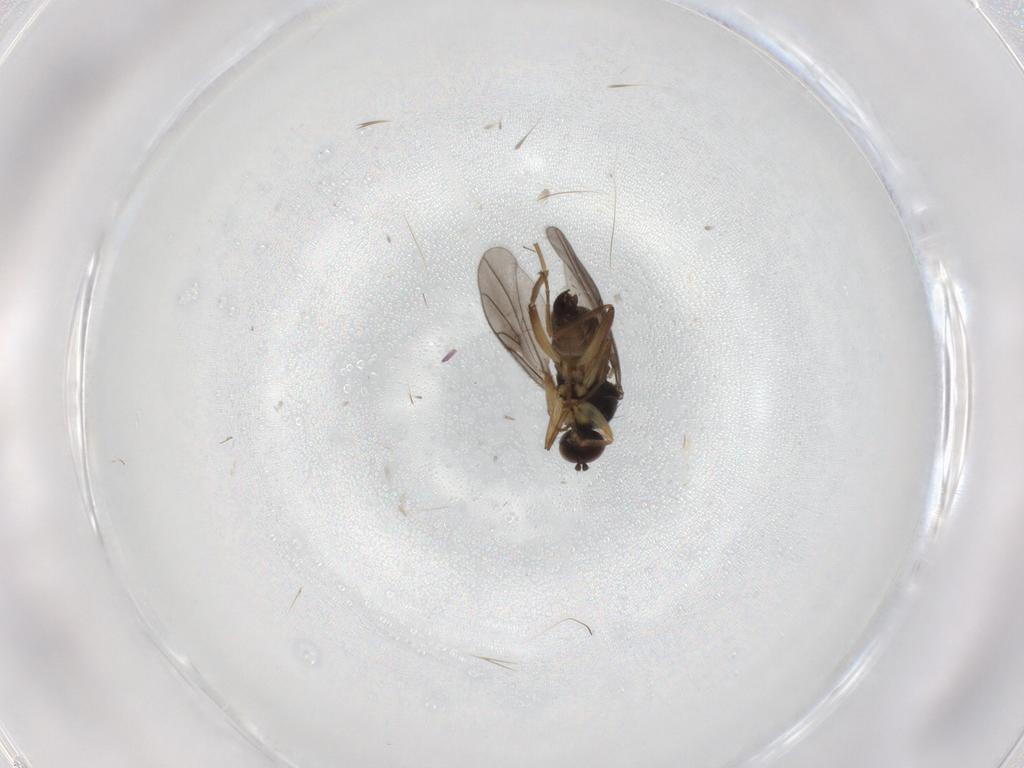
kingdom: Animalia
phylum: Arthropoda
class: Insecta
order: Diptera
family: Hybotidae
